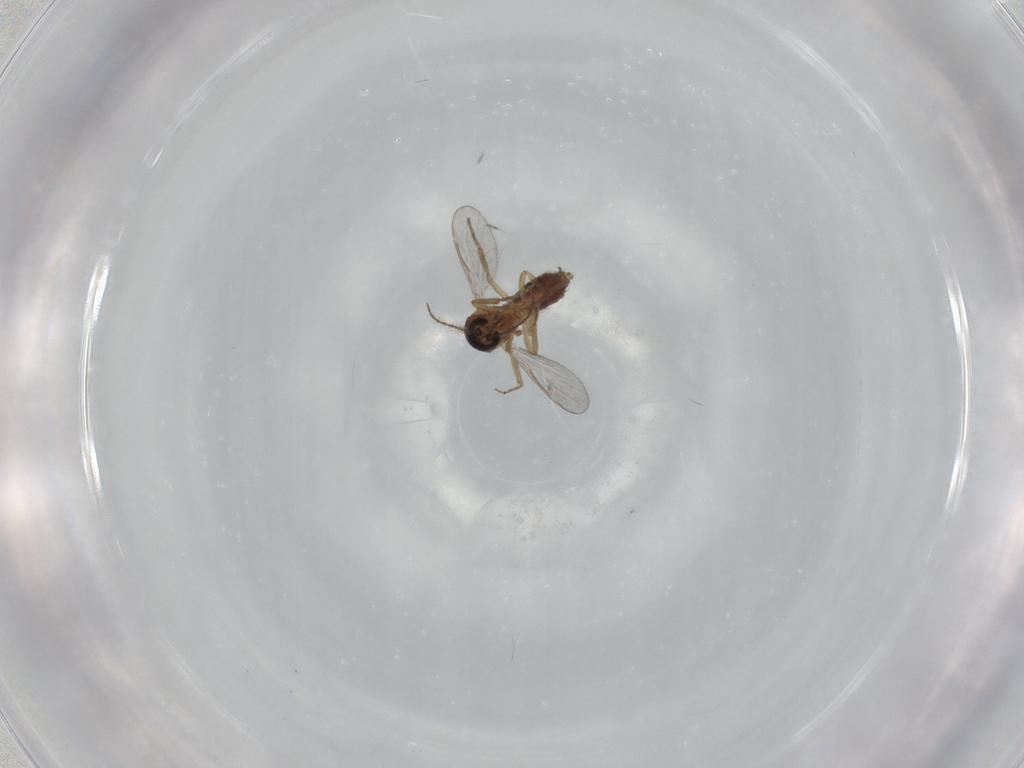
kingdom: Animalia
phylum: Arthropoda
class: Insecta
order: Diptera
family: Ceratopogonidae
